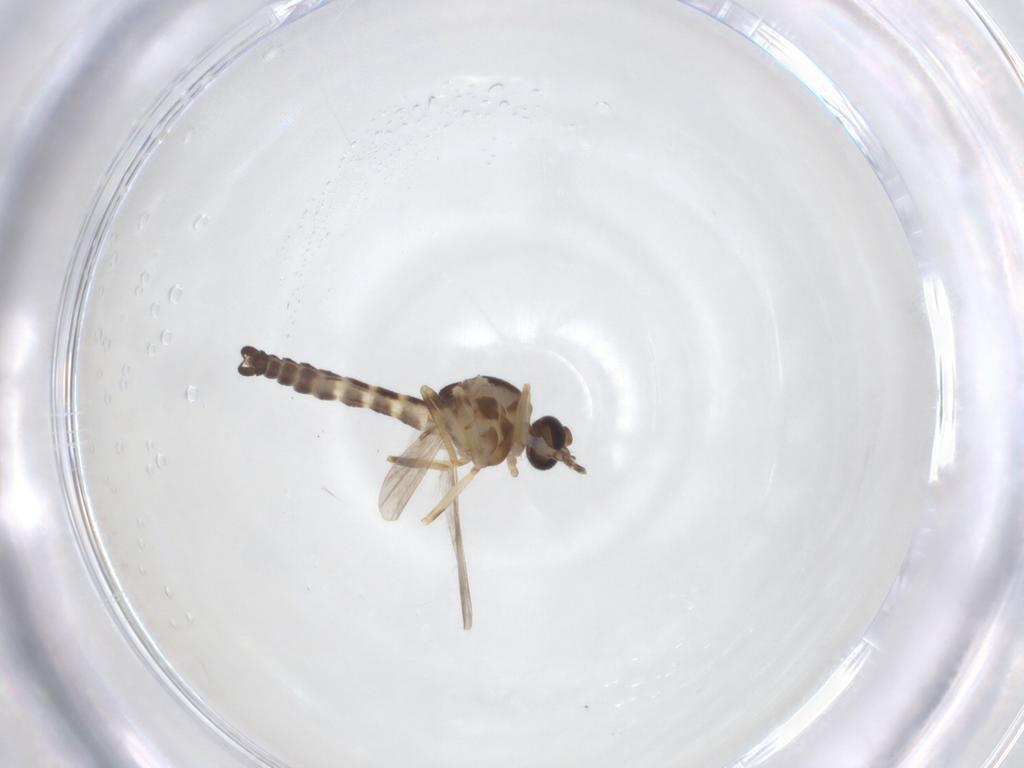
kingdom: Animalia
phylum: Arthropoda
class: Insecta
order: Diptera
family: Ceratopogonidae
